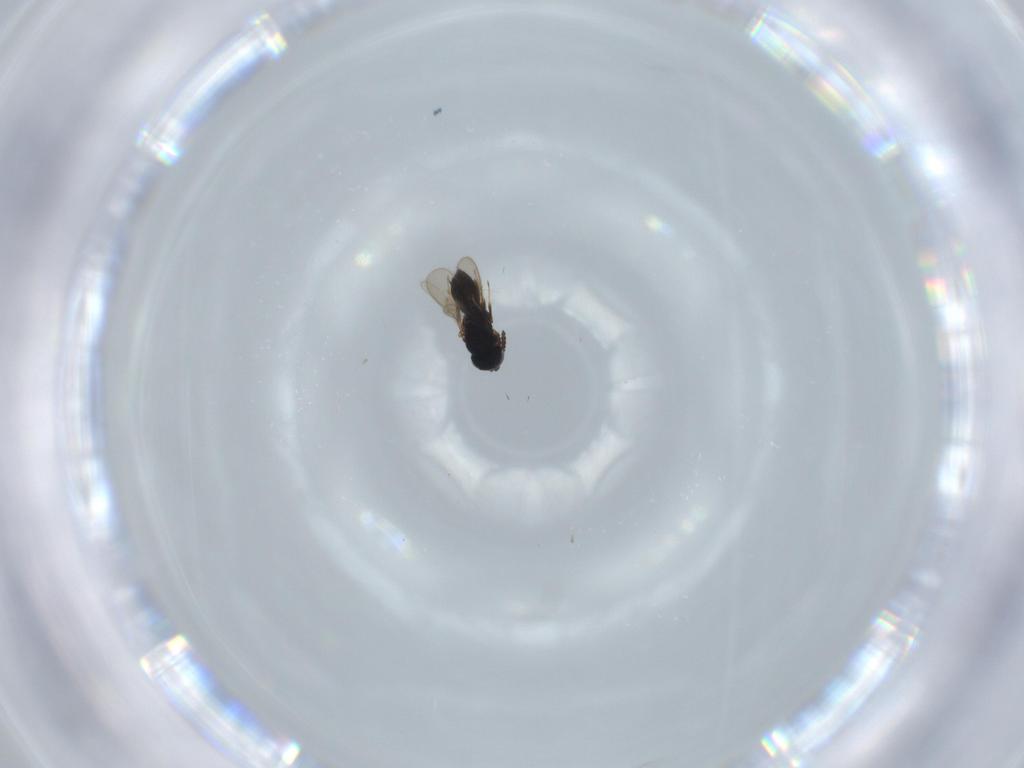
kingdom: Animalia
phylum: Arthropoda
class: Insecta
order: Hymenoptera
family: Scelionidae
